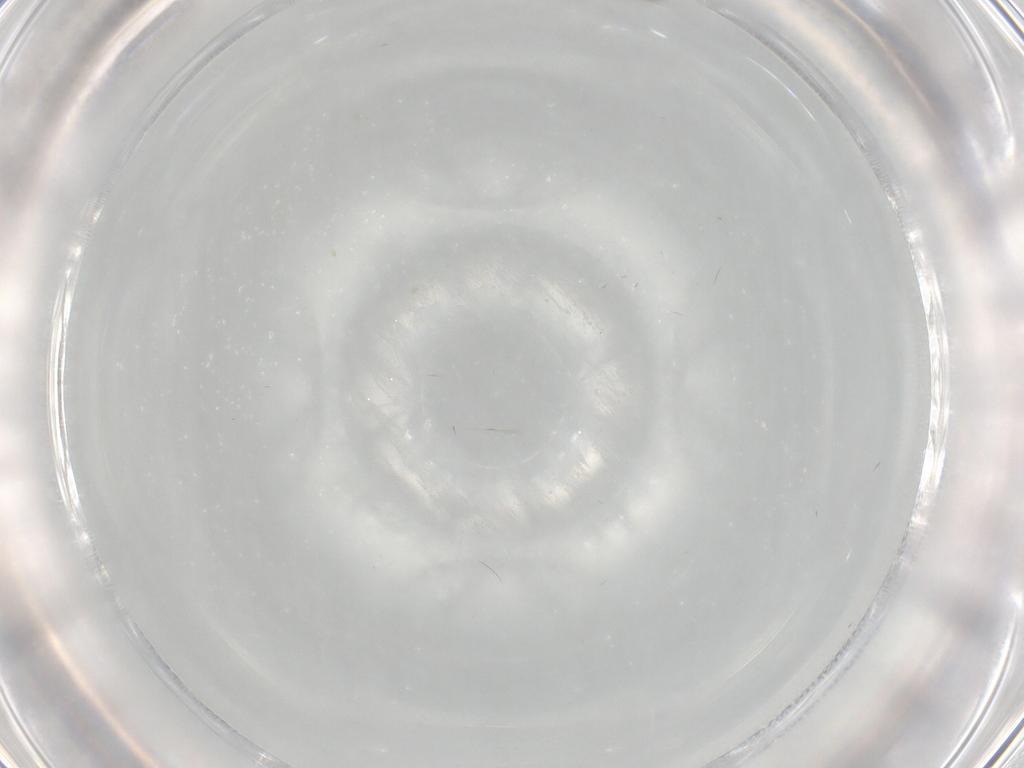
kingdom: Animalia
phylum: Arthropoda
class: Insecta
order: Diptera
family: Chironomidae
